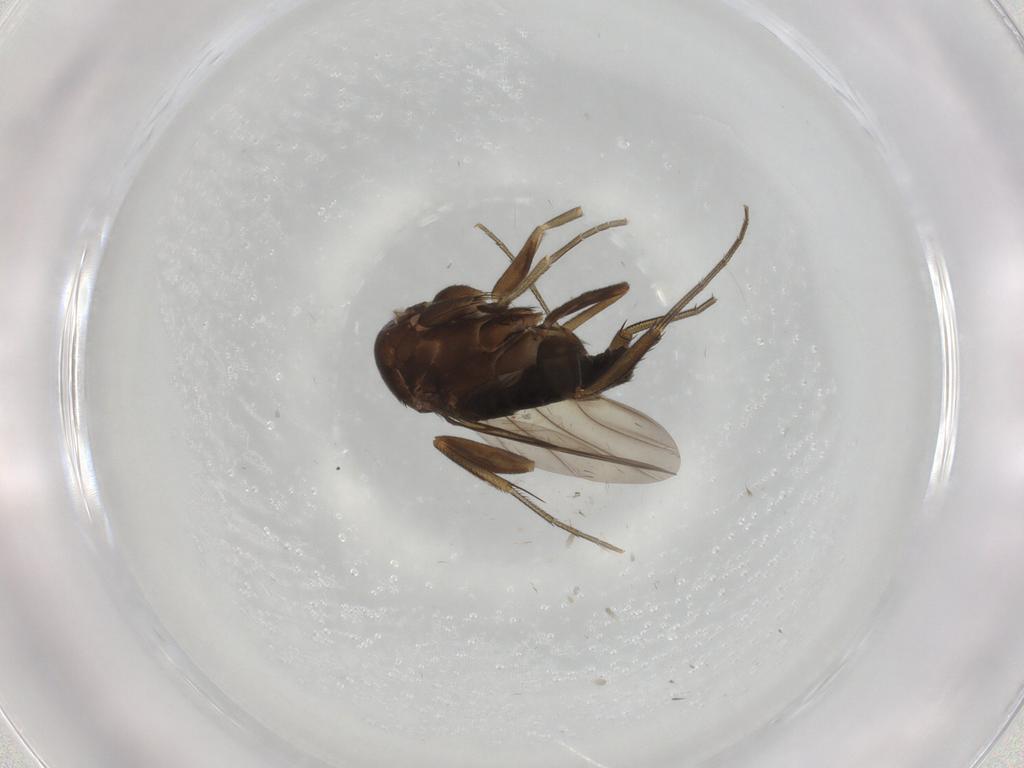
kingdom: Animalia
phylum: Arthropoda
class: Insecta
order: Diptera
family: Phoridae
